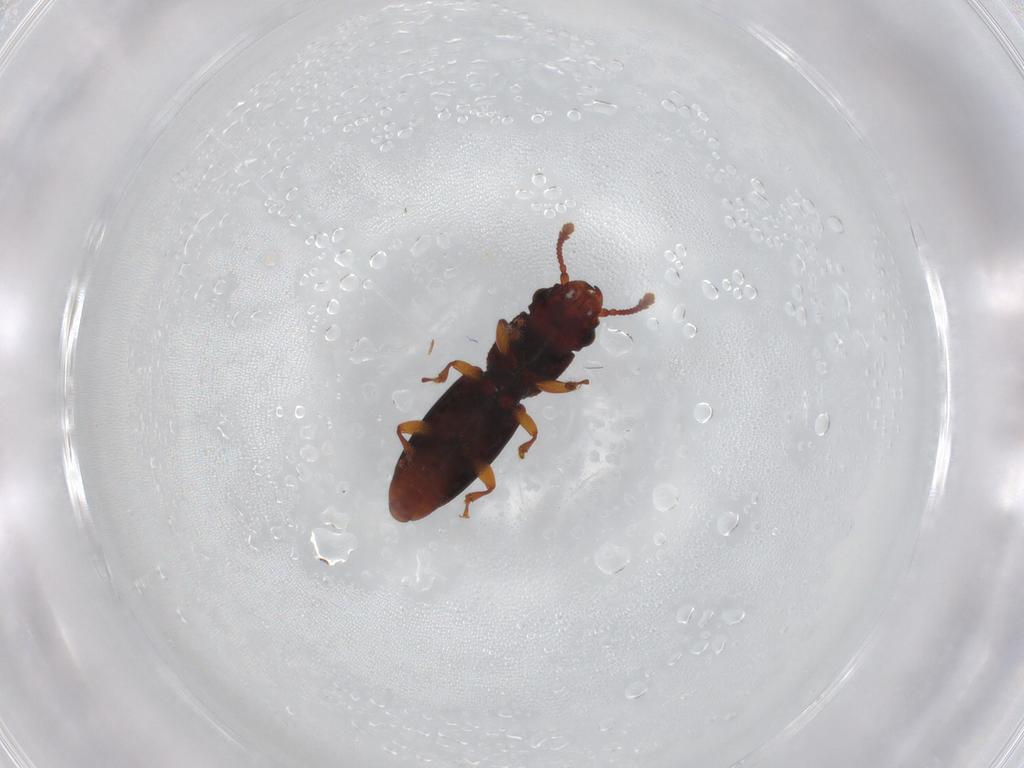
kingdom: Animalia
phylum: Arthropoda
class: Insecta
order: Coleoptera
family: Monotomidae
